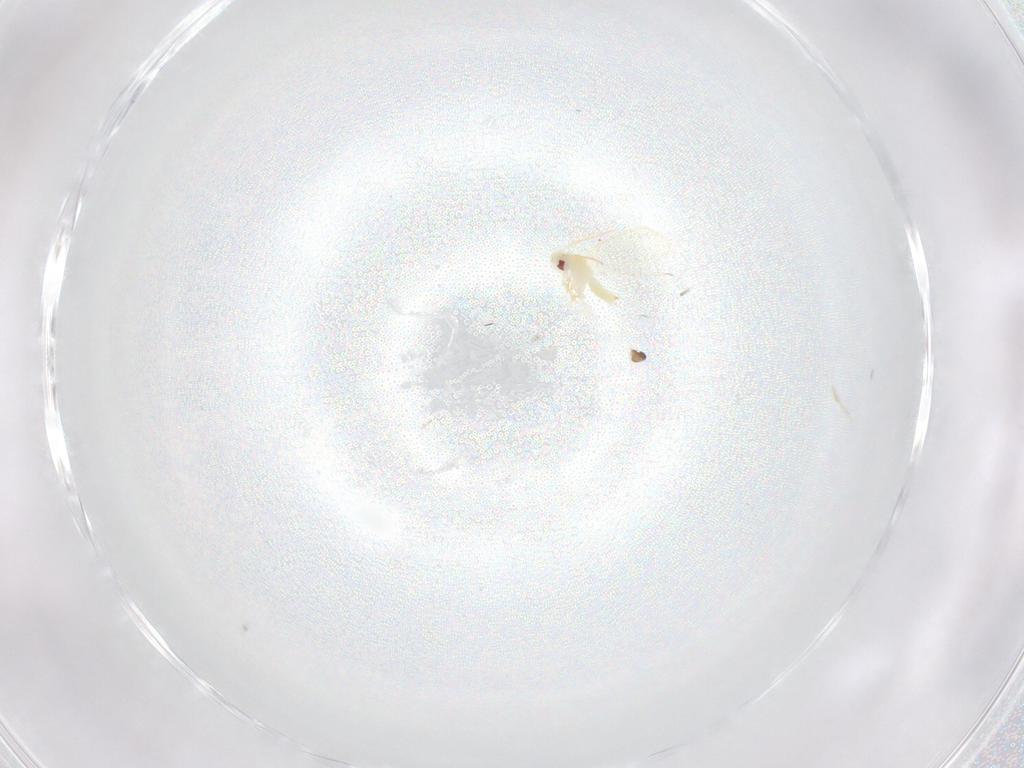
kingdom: Animalia
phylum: Arthropoda
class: Insecta
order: Hemiptera
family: Aleyrodidae
